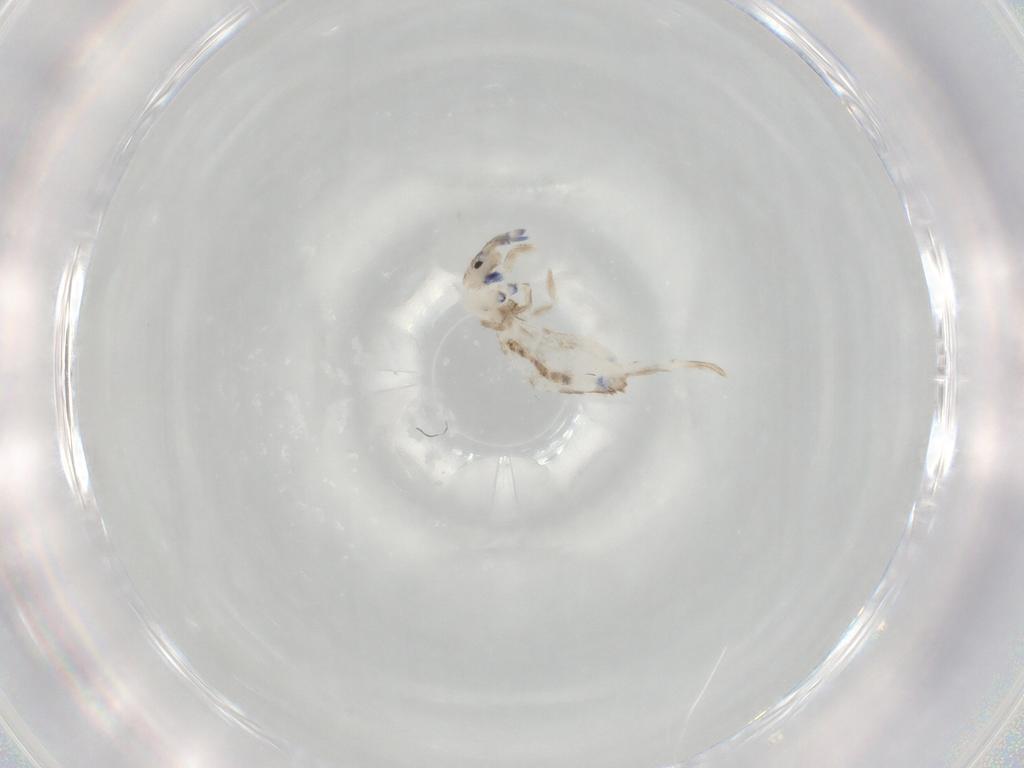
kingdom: Animalia
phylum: Arthropoda
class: Collembola
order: Entomobryomorpha
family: Entomobryidae
